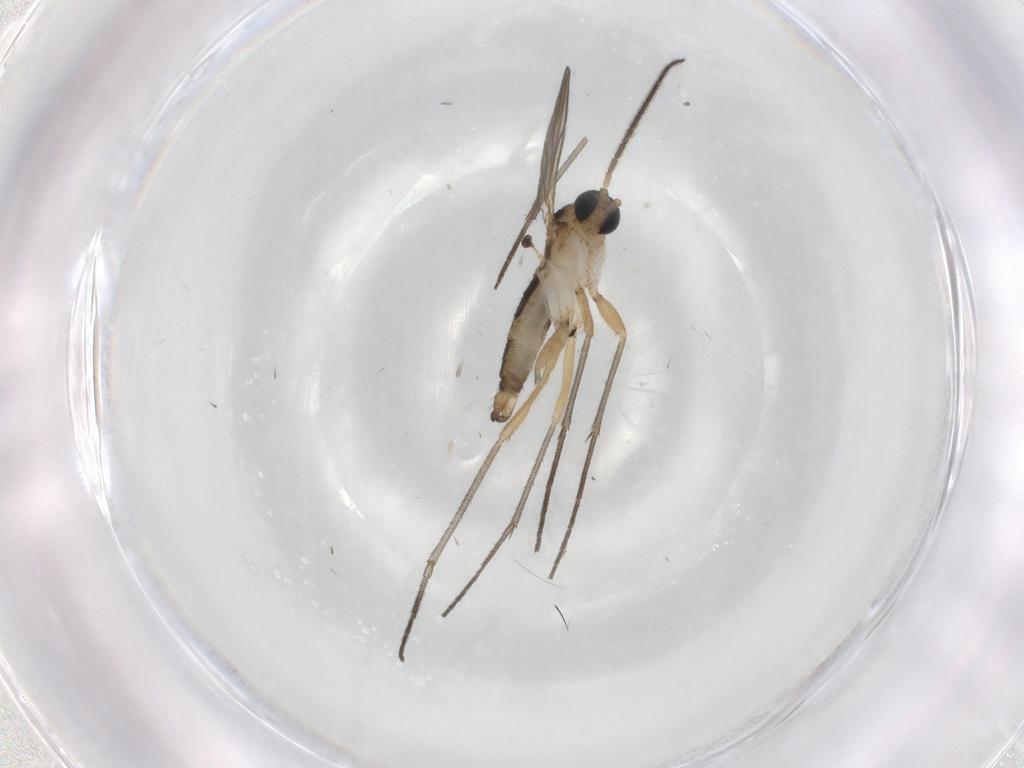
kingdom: Animalia
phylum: Arthropoda
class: Insecta
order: Diptera
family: Sciaridae
